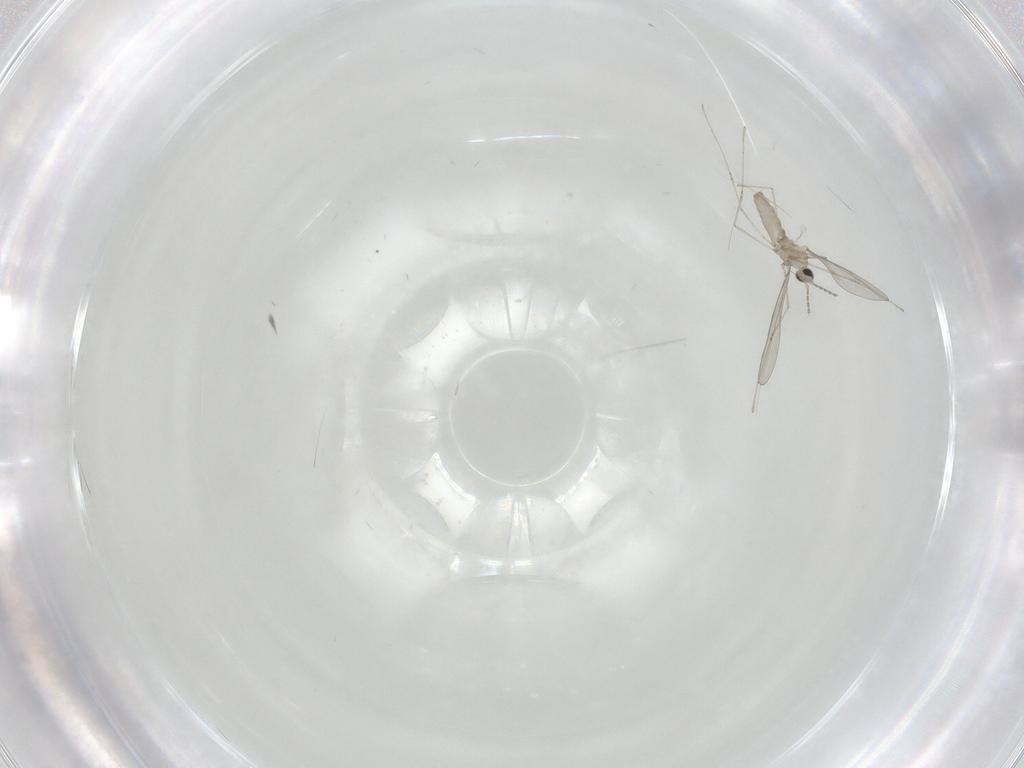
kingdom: Animalia
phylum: Arthropoda
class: Insecta
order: Diptera
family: Cecidomyiidae
